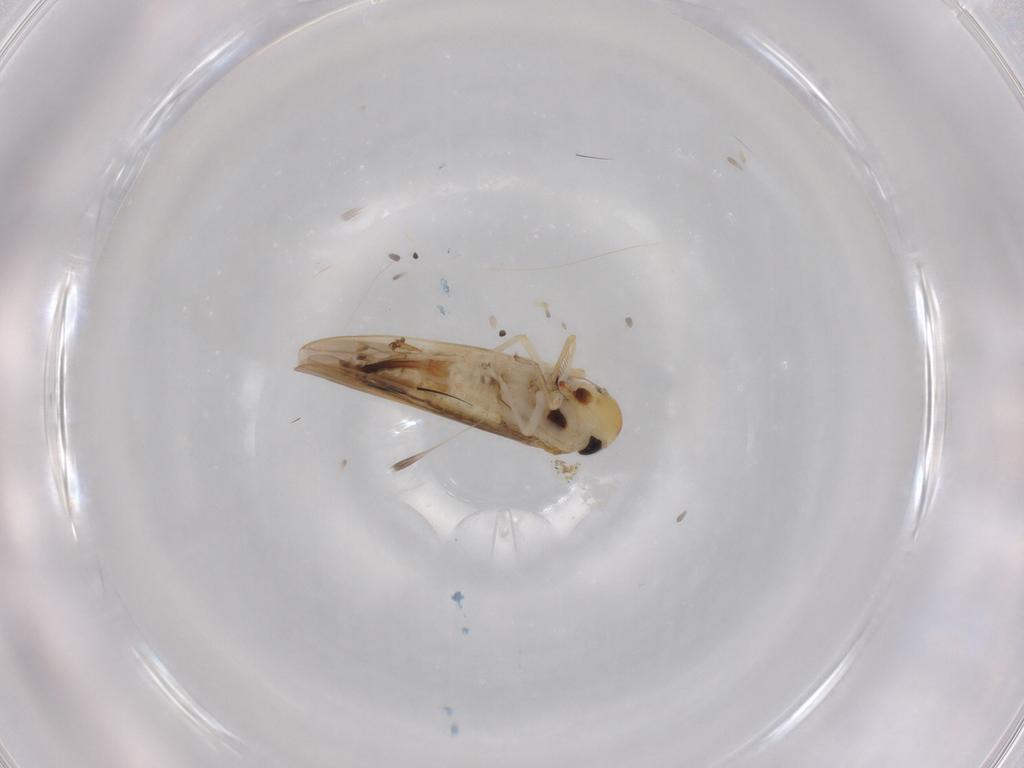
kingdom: Animalia
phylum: Arthropoda
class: Insecta
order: Hemiptera
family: Cicadellidae
